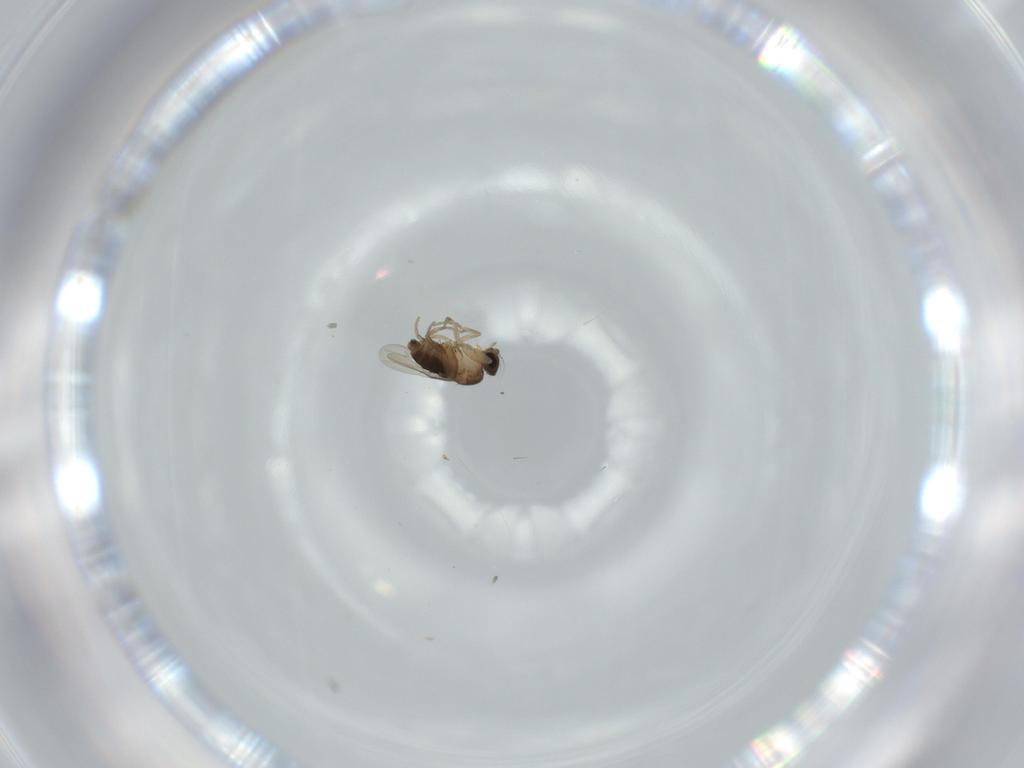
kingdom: Animalia
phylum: Arthropoda
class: Insecta
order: Diptera
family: Phoridae
